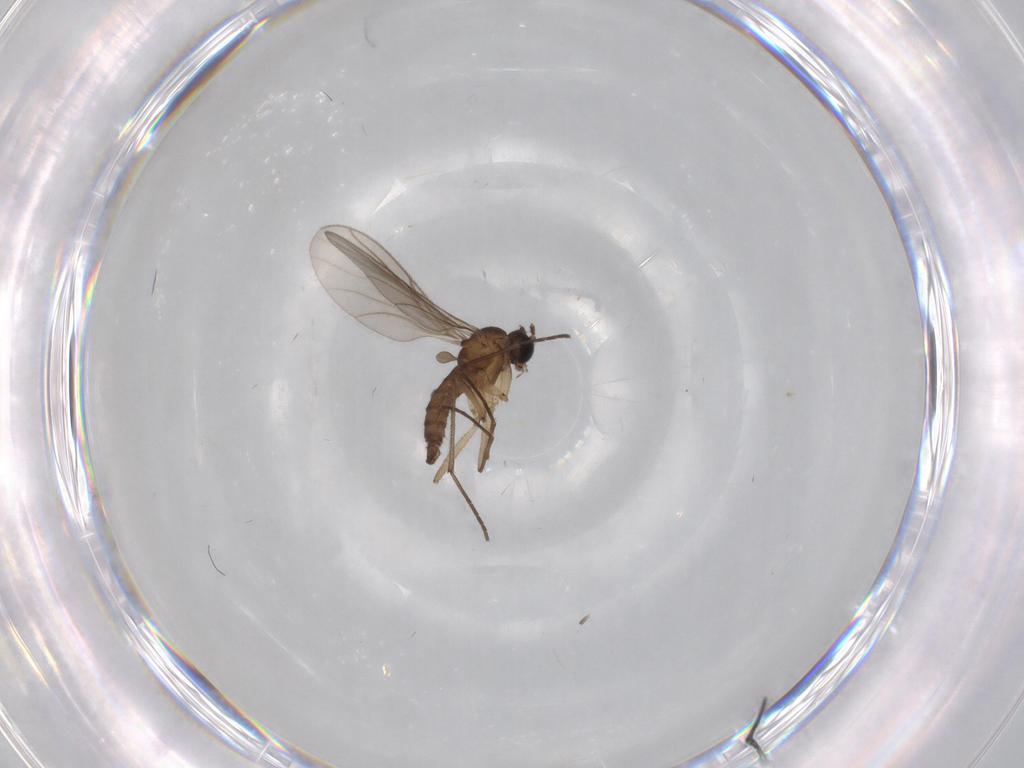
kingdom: Animalia
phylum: Arthropoda
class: Insecta
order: Diptera
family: Sciaridae
